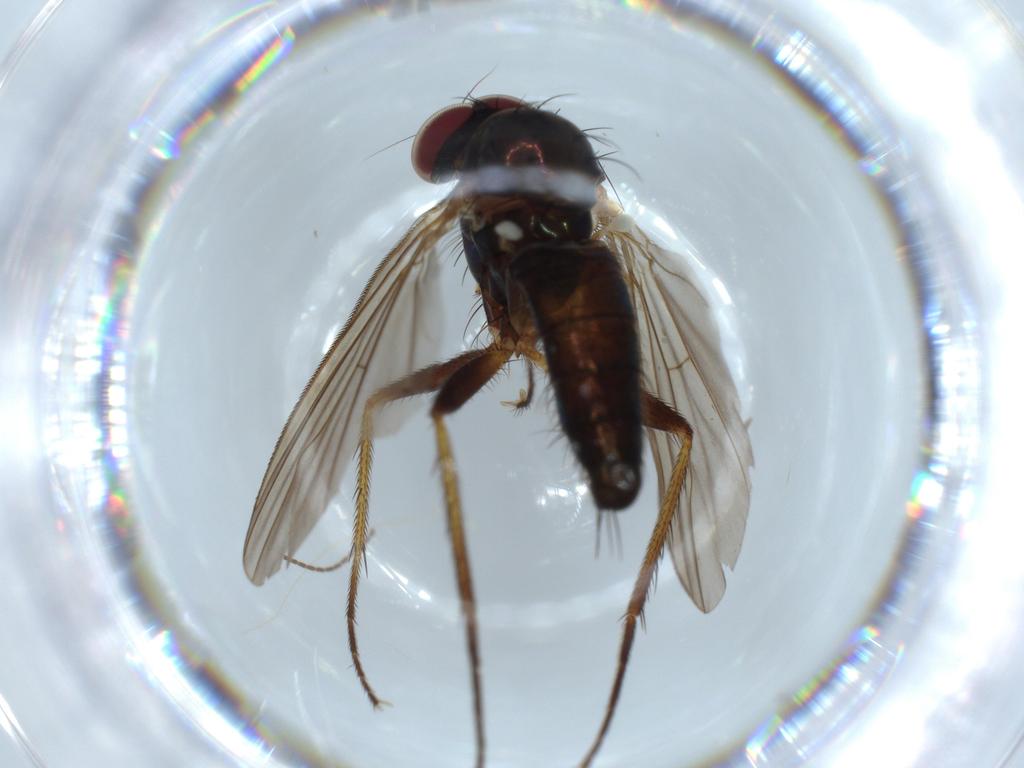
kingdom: Animalia
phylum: Arthropoda
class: Insecta
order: Diptera
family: Dolichopodidae
